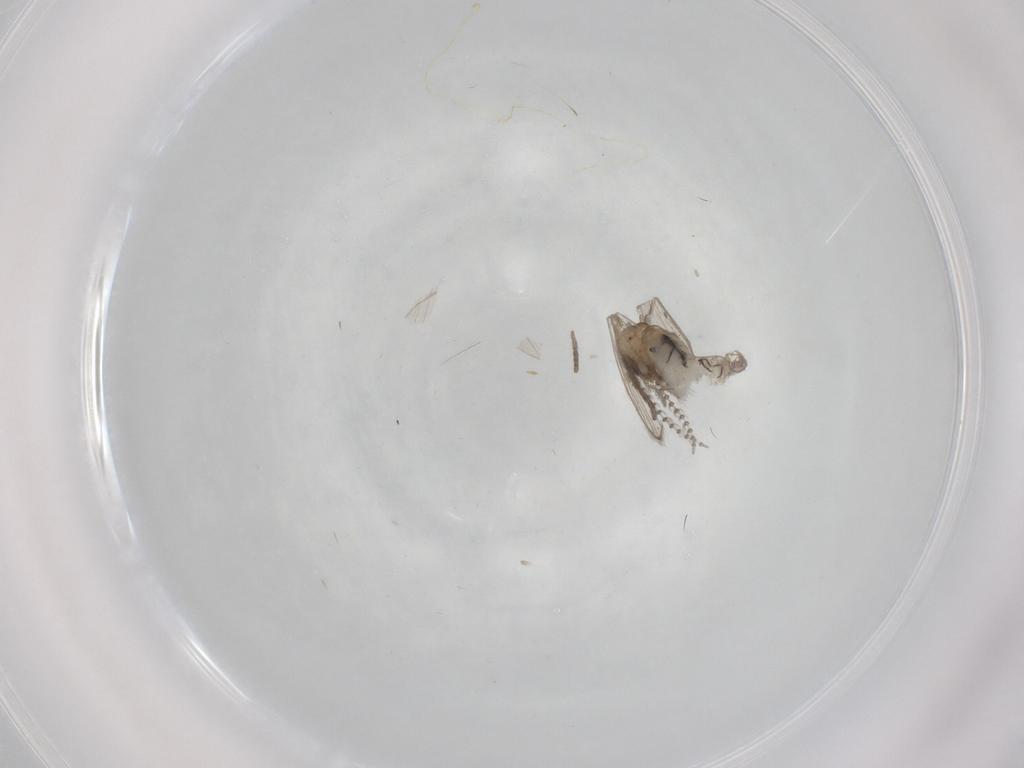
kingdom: Animalia
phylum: Arthropoda
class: Insecta
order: Diptera
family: Psychodidae
